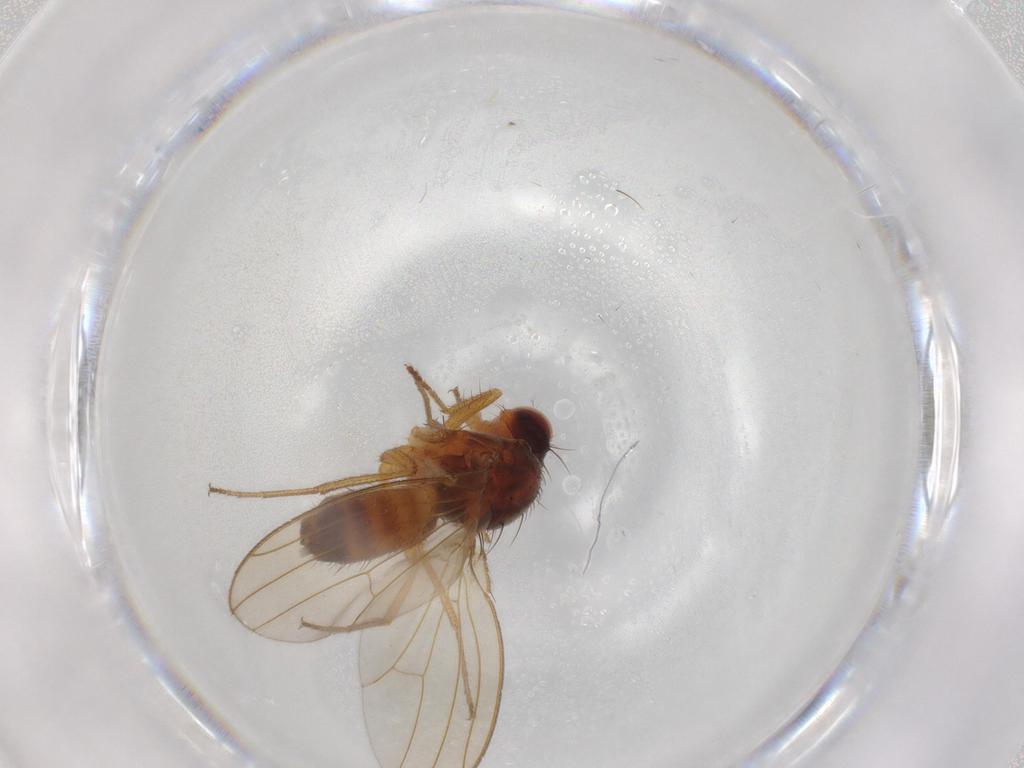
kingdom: Animalia
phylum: Arthropoda
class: Insecta
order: Diptera
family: Drosophilidae
